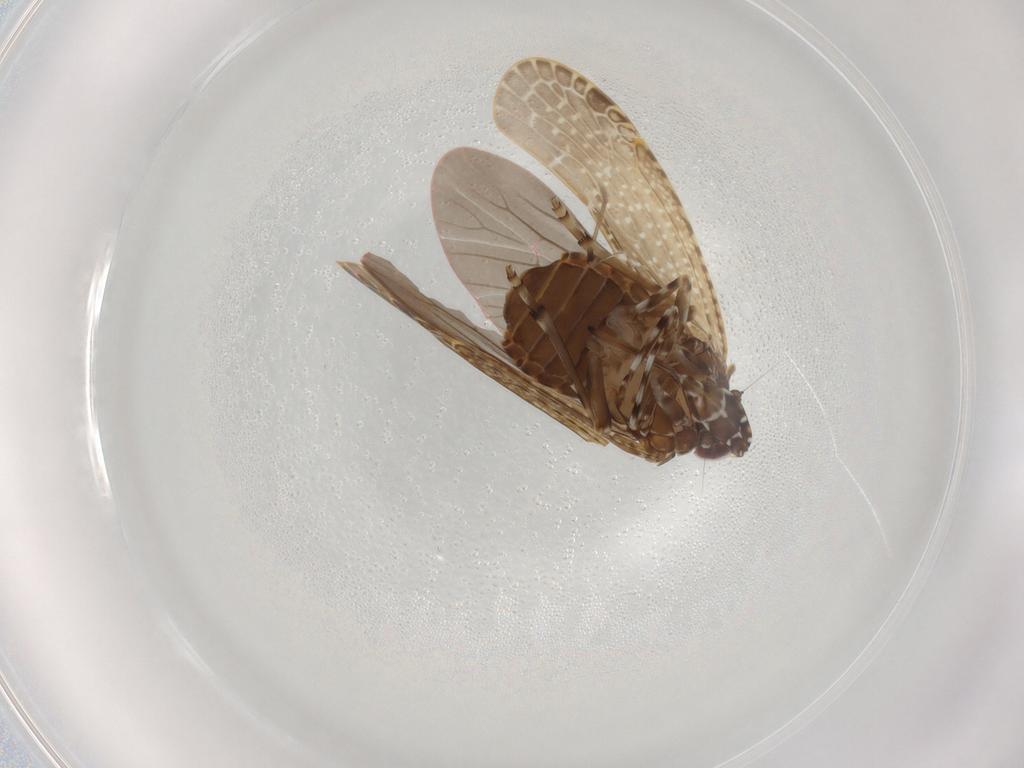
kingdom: Animalia
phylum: Arthropoda
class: Insecta
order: Hemiptera
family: Achilidae
